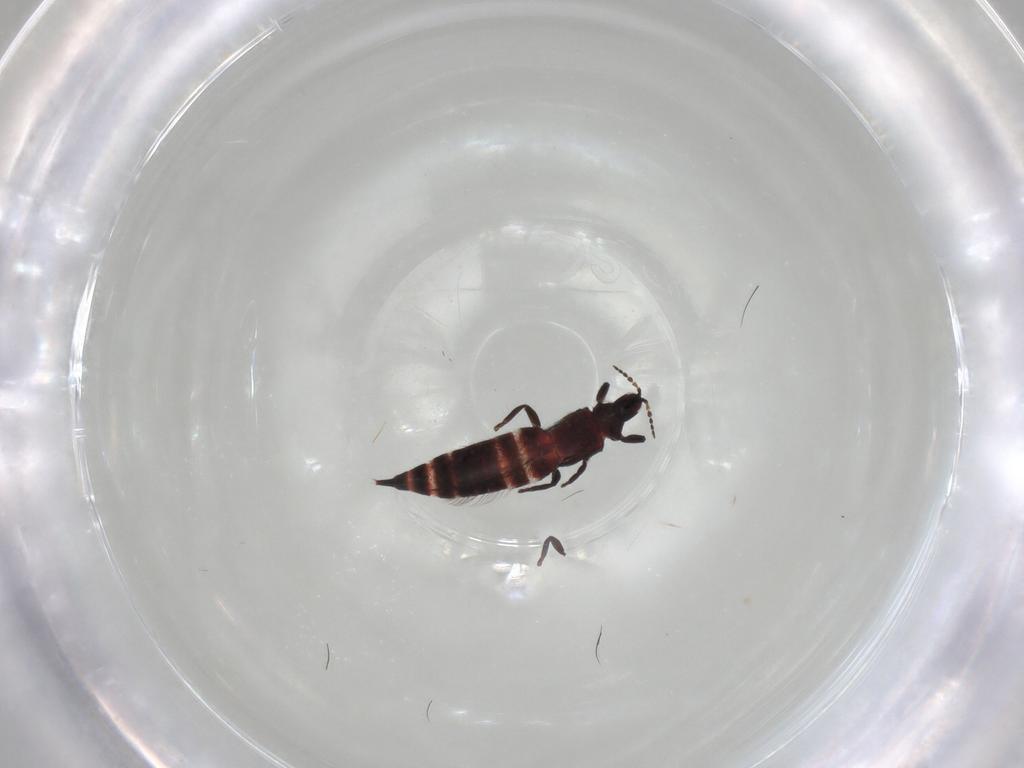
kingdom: Animalia
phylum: Arthropoda
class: Insecta
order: Thysanoptera
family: Phlaeothripidae
